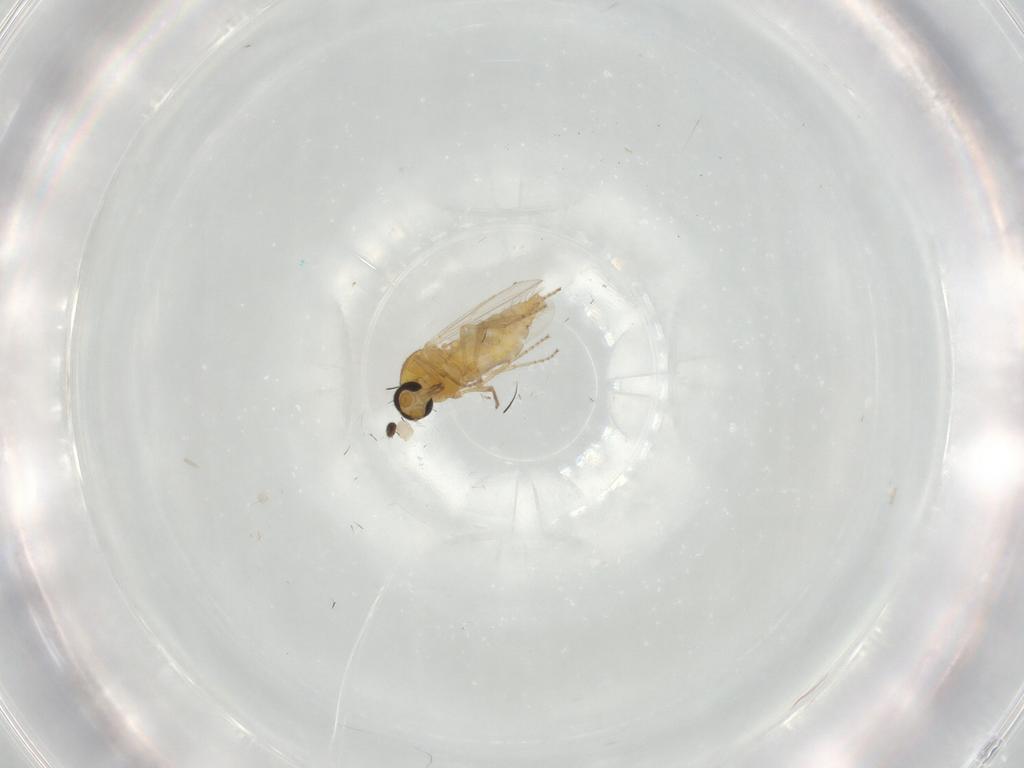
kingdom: Animalia
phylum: Arthropoda
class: Insecta
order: Diptera
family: Dolichopodidae
